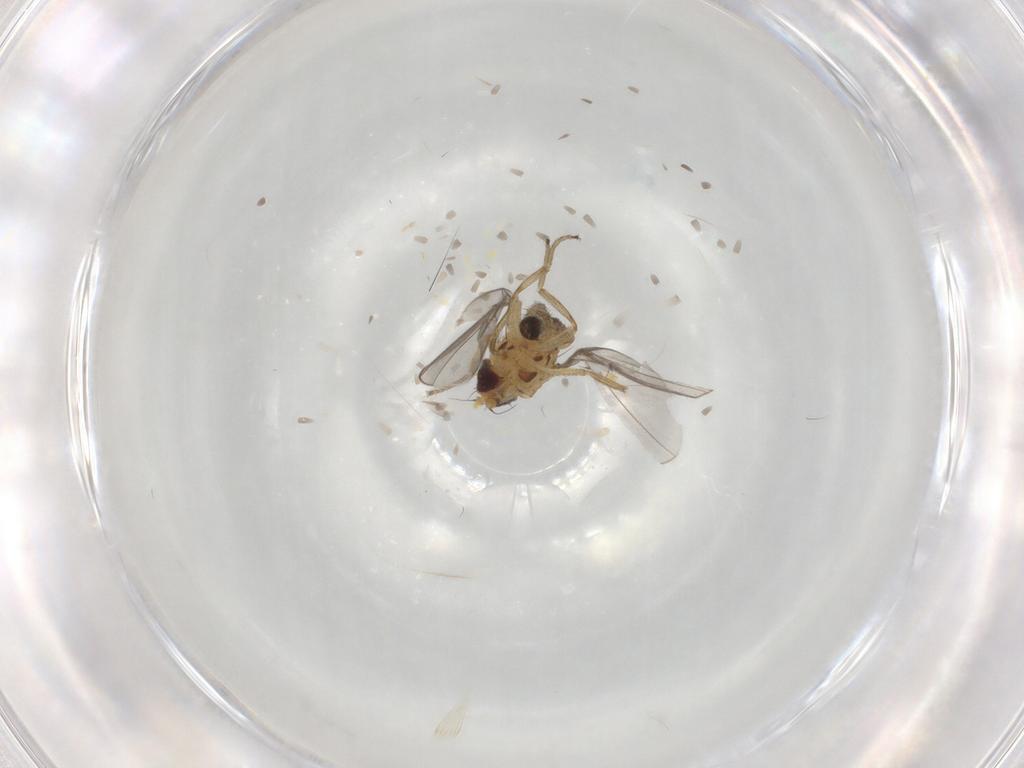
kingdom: Animalia
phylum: Arthropoda
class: Insecta
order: Diptera
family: Agromyzidae
